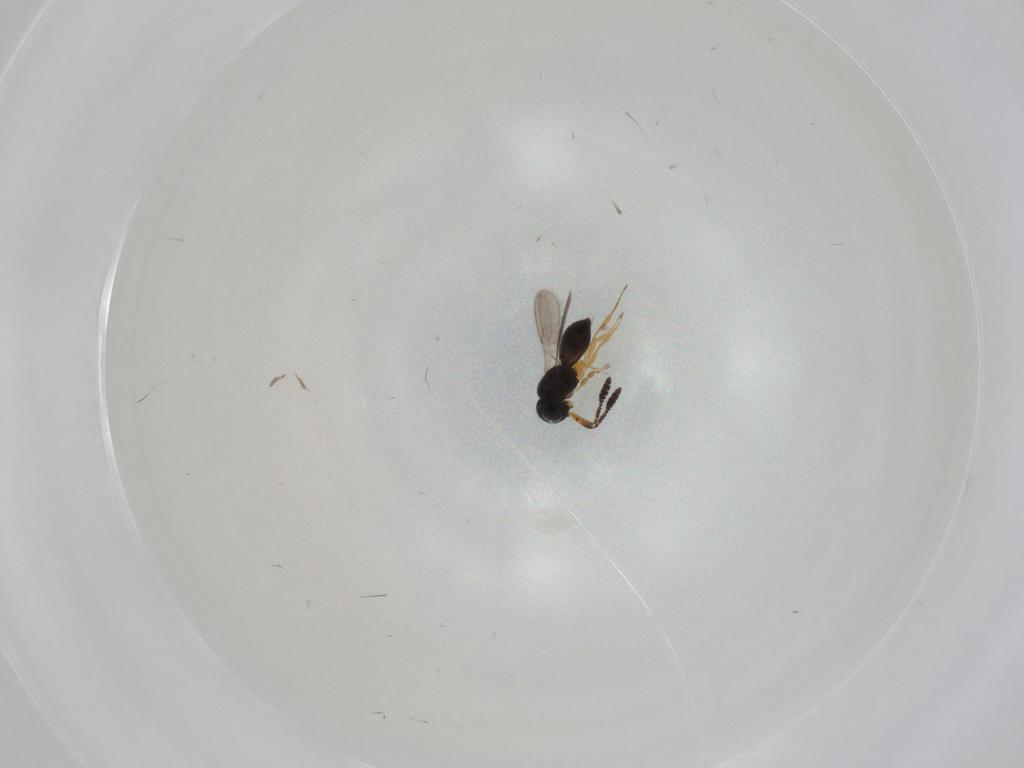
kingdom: Animalia
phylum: Arthropoda
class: Insecta
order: Hymenoptera
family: Scelionidae
